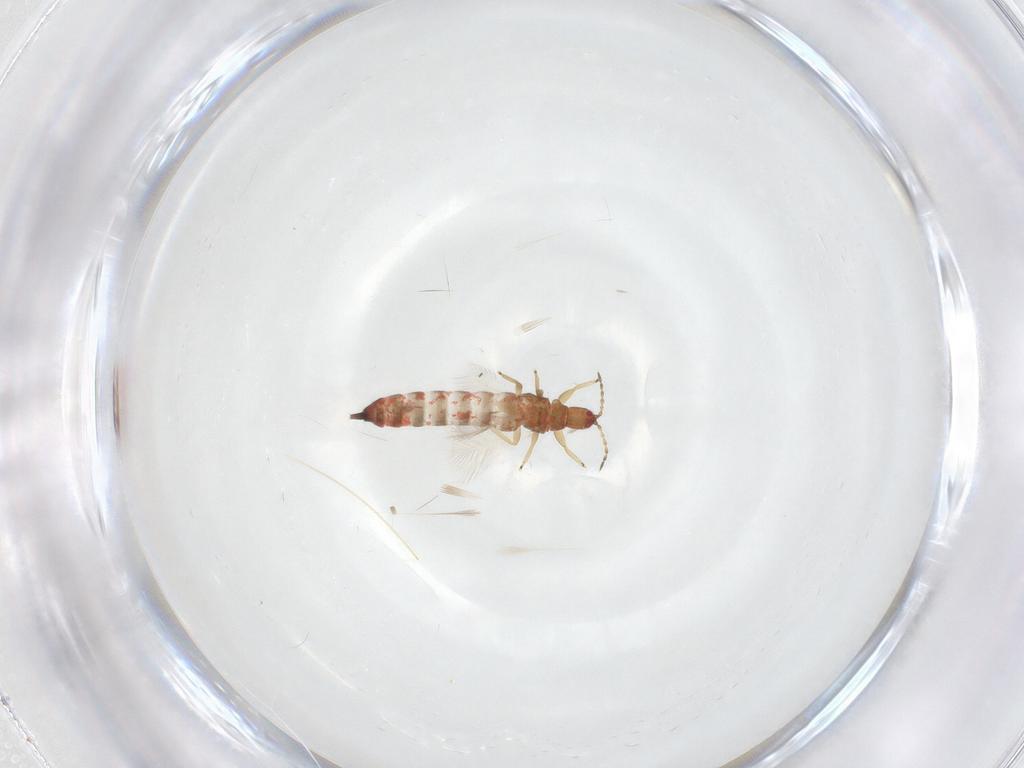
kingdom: Animalia
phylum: Arthropoda
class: Insecta
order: Thysanoptera
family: Phlaeothripidae
